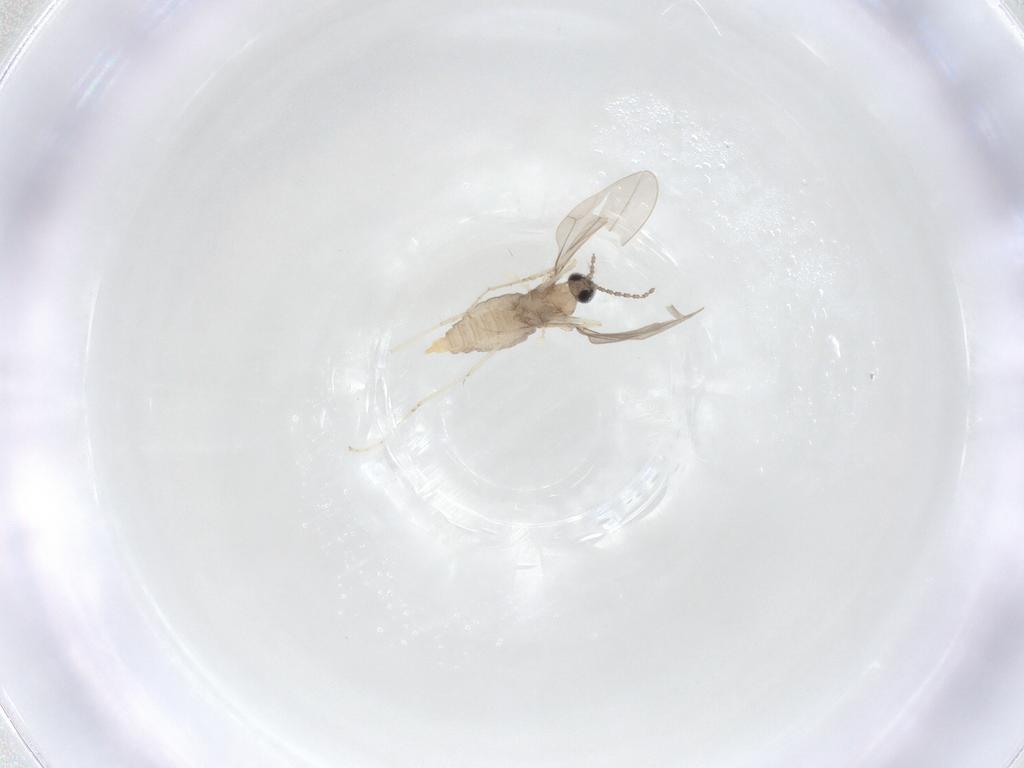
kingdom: Animalia
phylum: Arthropoda
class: Insecta
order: Diptera
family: Cecidomyiidae
